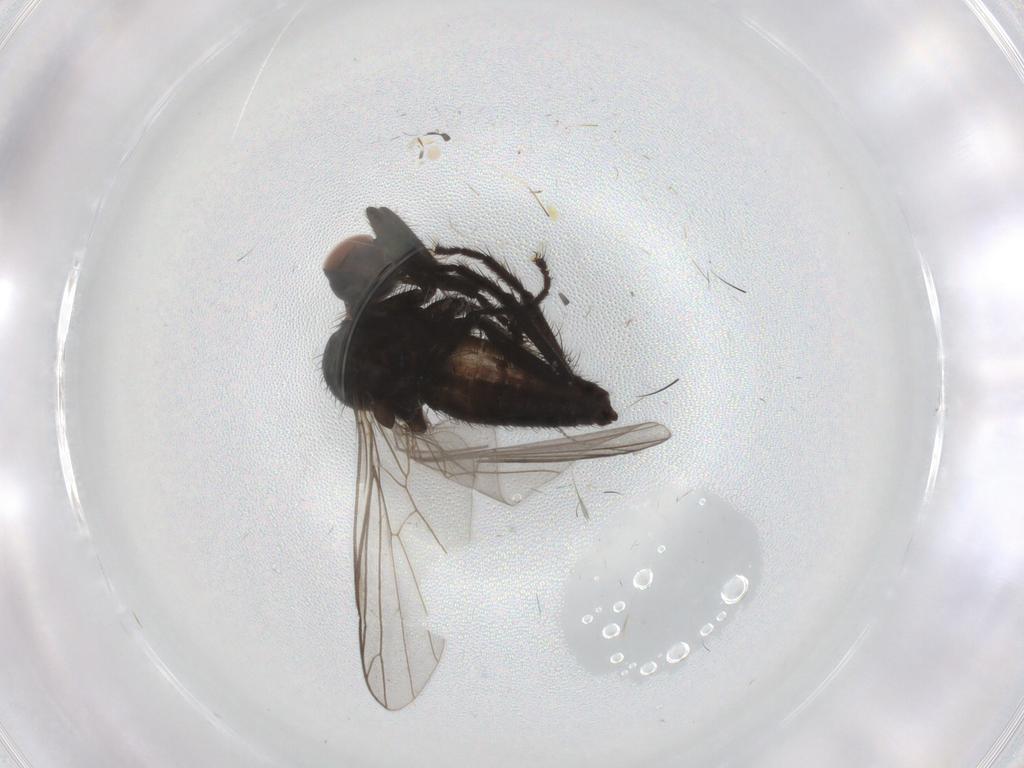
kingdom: Animalia
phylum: Arthropoda
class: Insecta
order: Diptera
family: Empididae
